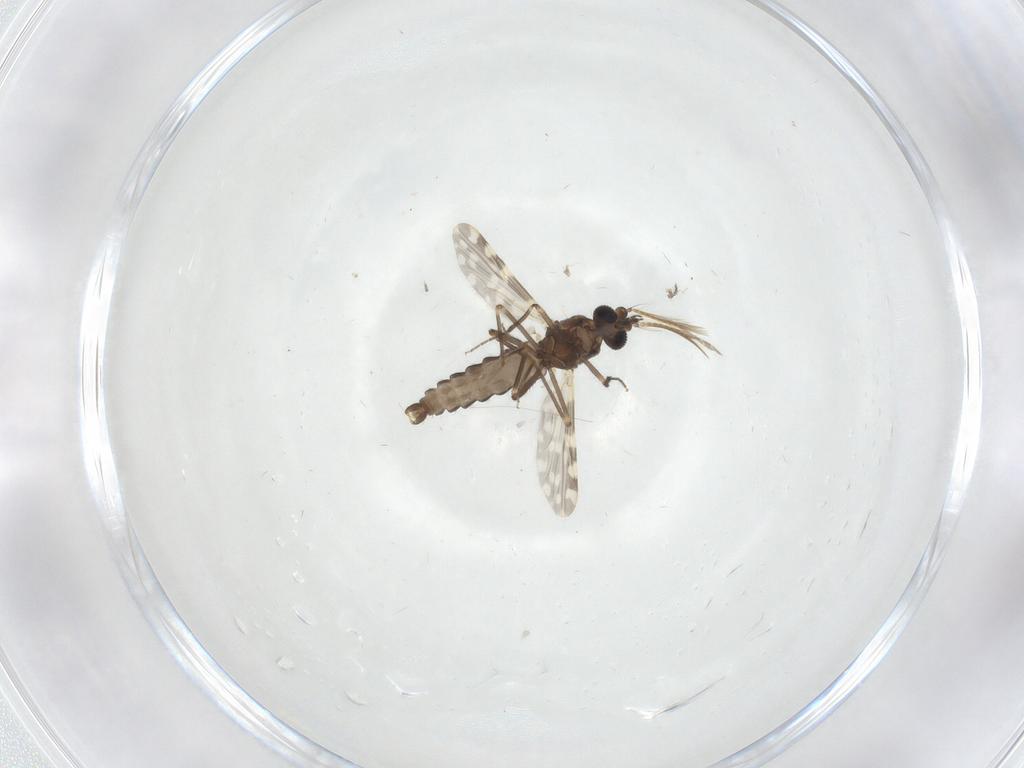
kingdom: Animalia
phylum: Arthropoda
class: Insecta
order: Diptera
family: Ceratopogonidae
